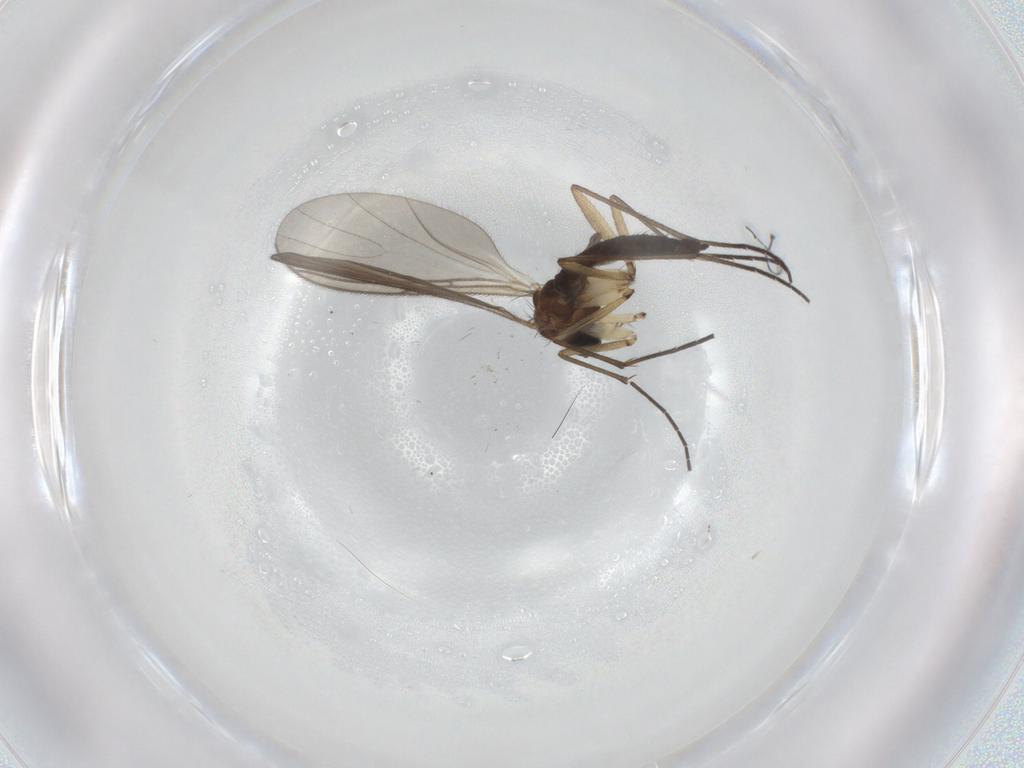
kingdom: Animalia
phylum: Arthropoda
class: Insecta
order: Diptera
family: Sciaridae
